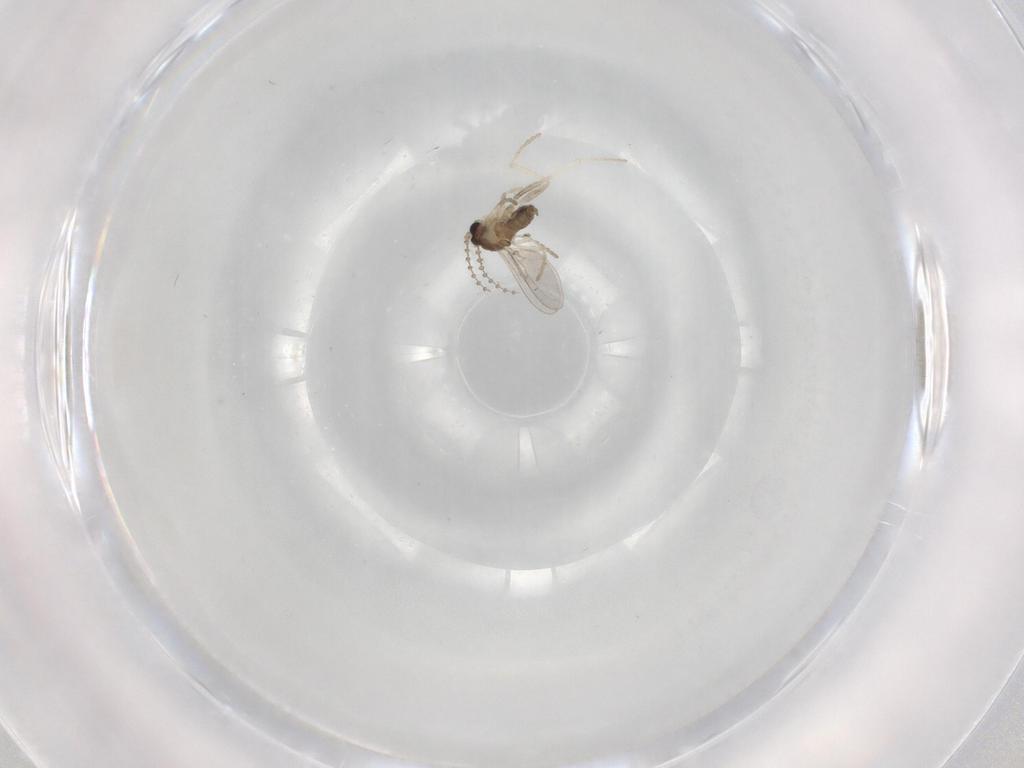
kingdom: Animalia
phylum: Arthropoda
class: Insecta
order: Diptera
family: Cecidomyiidae
